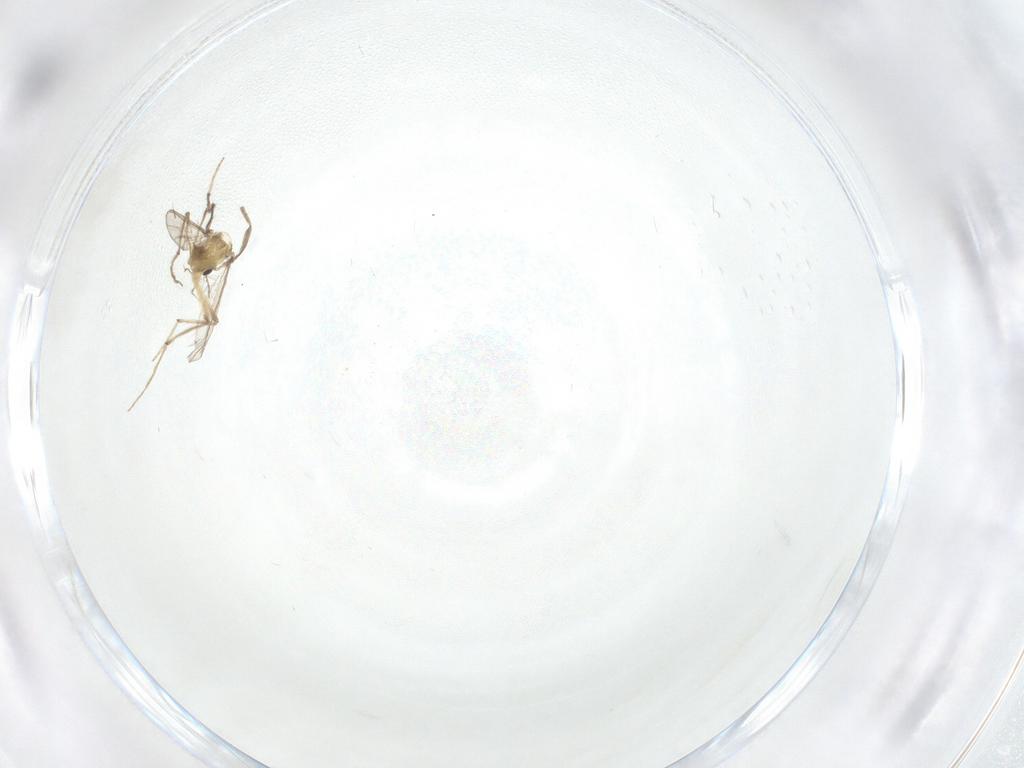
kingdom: Animalia
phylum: Arthropoda
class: Insecta
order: Diptera
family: Chironomidae
